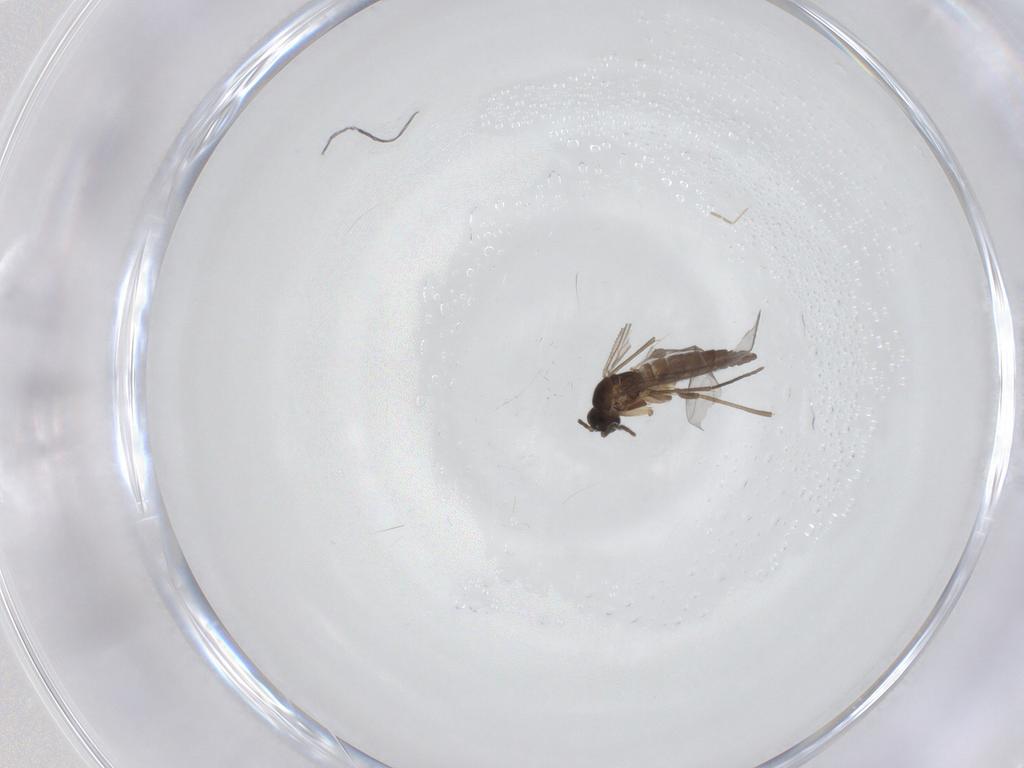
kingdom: Animalia
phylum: Arthropoda
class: Insecta
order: Diptera
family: Sciaridae
